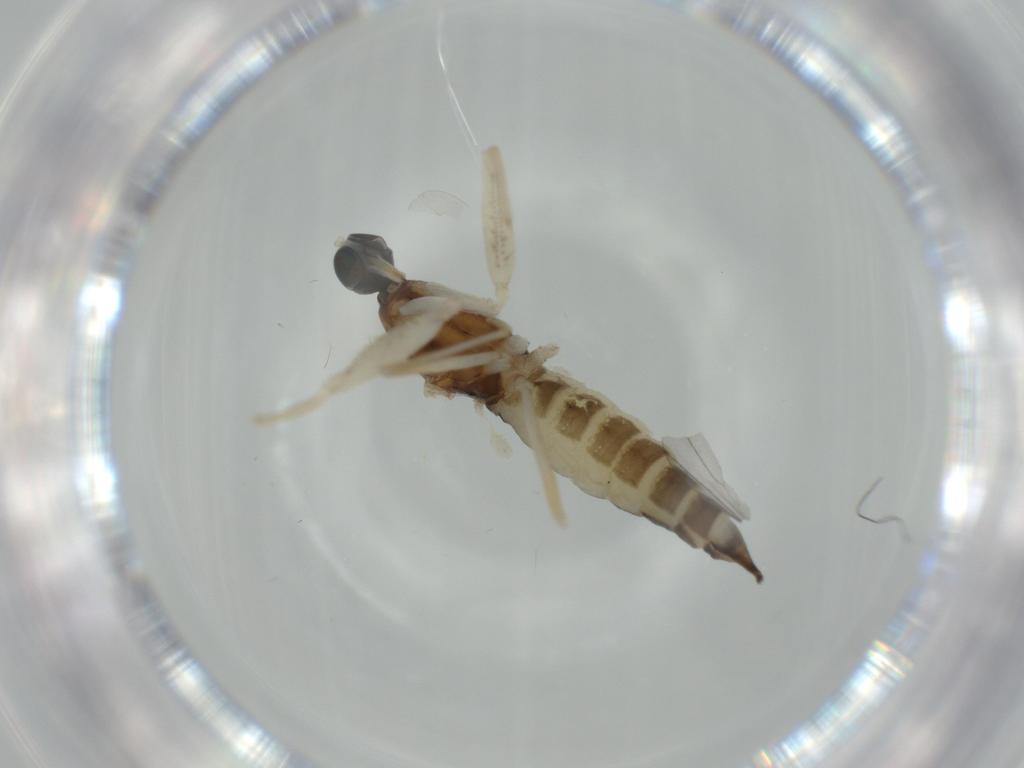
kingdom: Animalia
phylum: Arthropoda
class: Insecta
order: Diptera
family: Empididae
